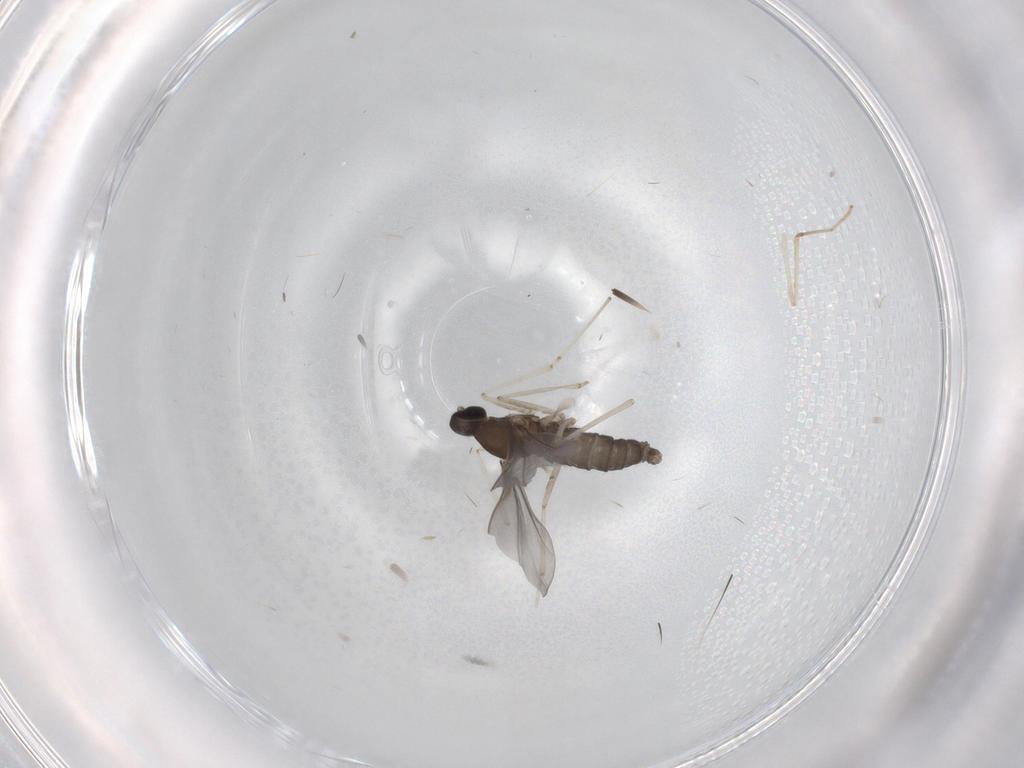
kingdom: Animalia
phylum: Arthropoda
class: Insecta
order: Diptera
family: Cecidomyiidae
